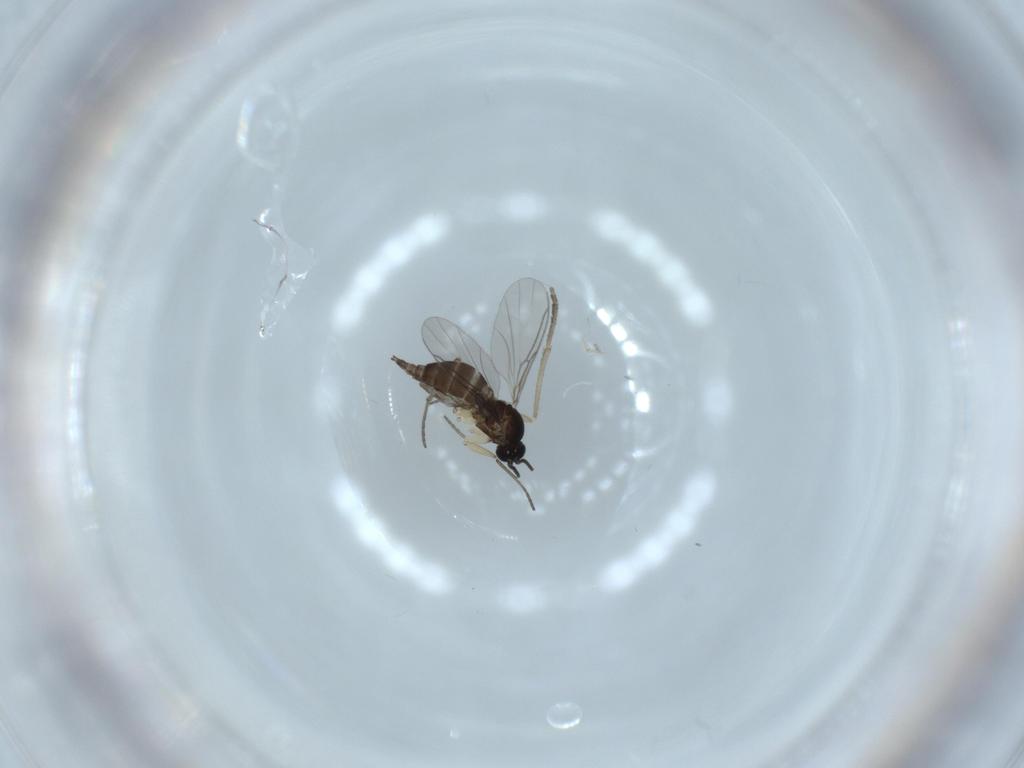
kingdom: Animalia
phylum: Arthropoda
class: Insecta
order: Diptera
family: Sciaridae
